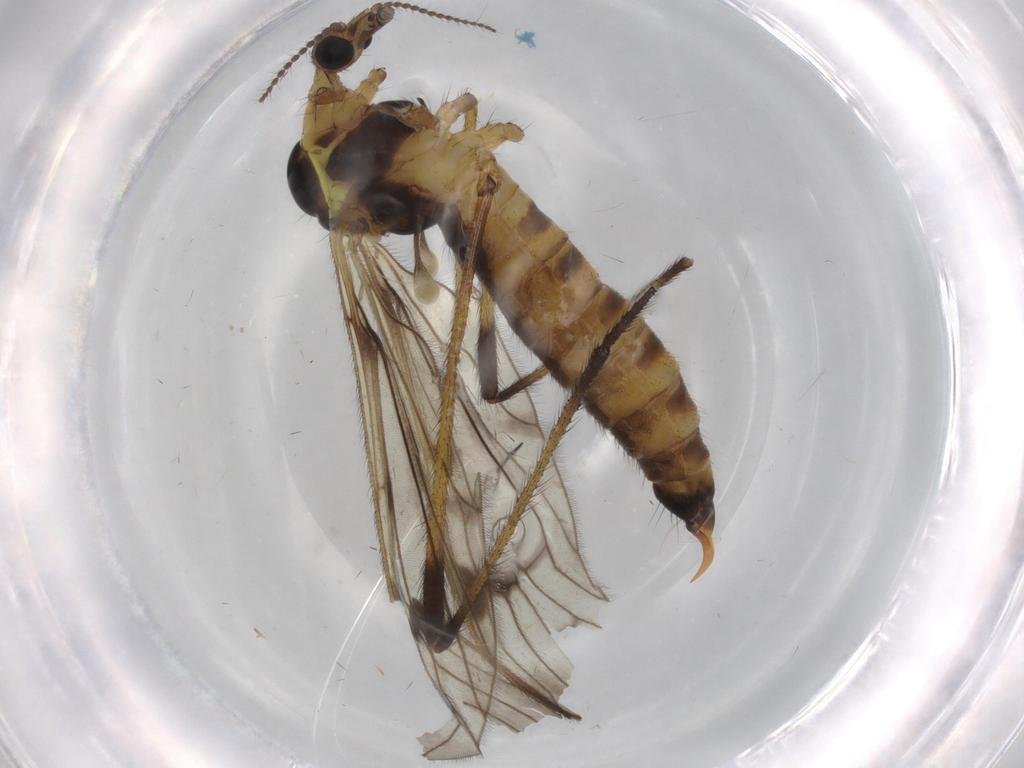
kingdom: Animalia
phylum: Arthropoda
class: Insecta
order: Diptera
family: Limoniidae
